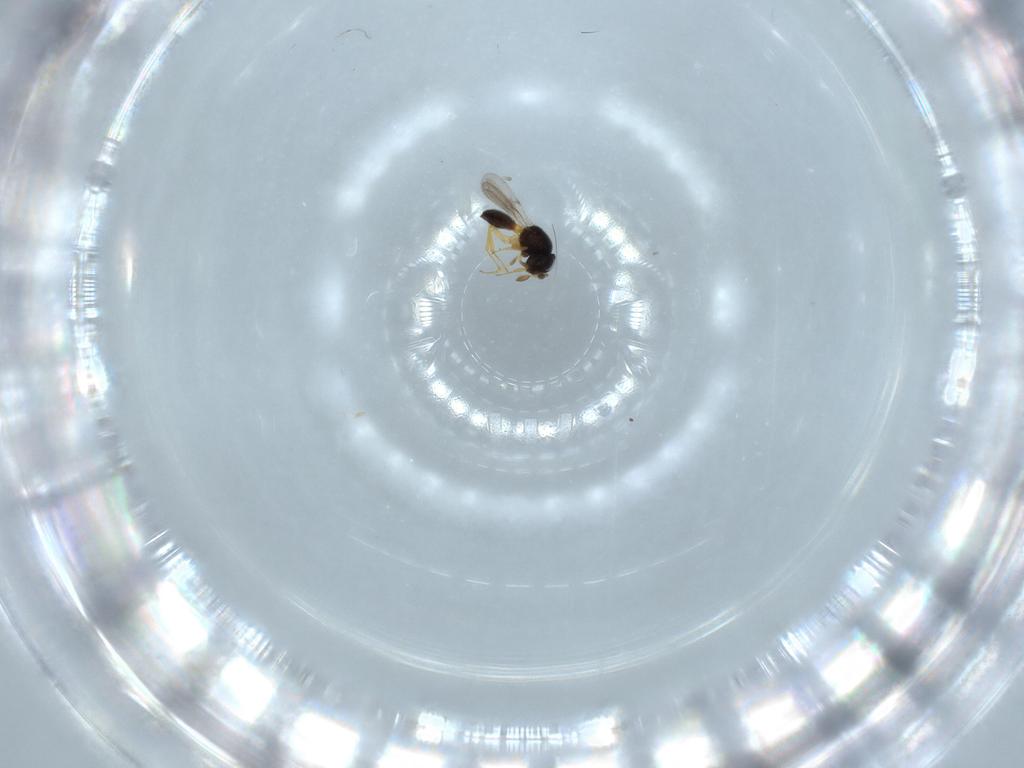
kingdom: Animalia
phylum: Arthropoda
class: Insecta
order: Hymenoptera
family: Scelionidae
